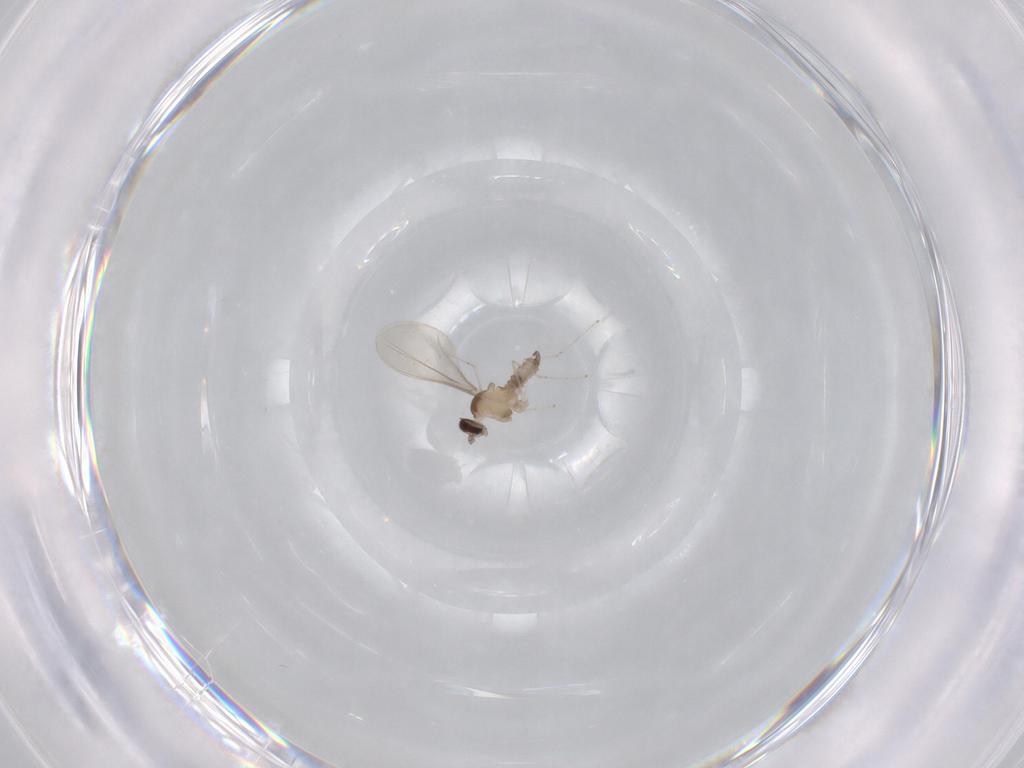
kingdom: Animalia
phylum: Arthropoda
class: Insecta
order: Diptera
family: Cecidomyiidae
